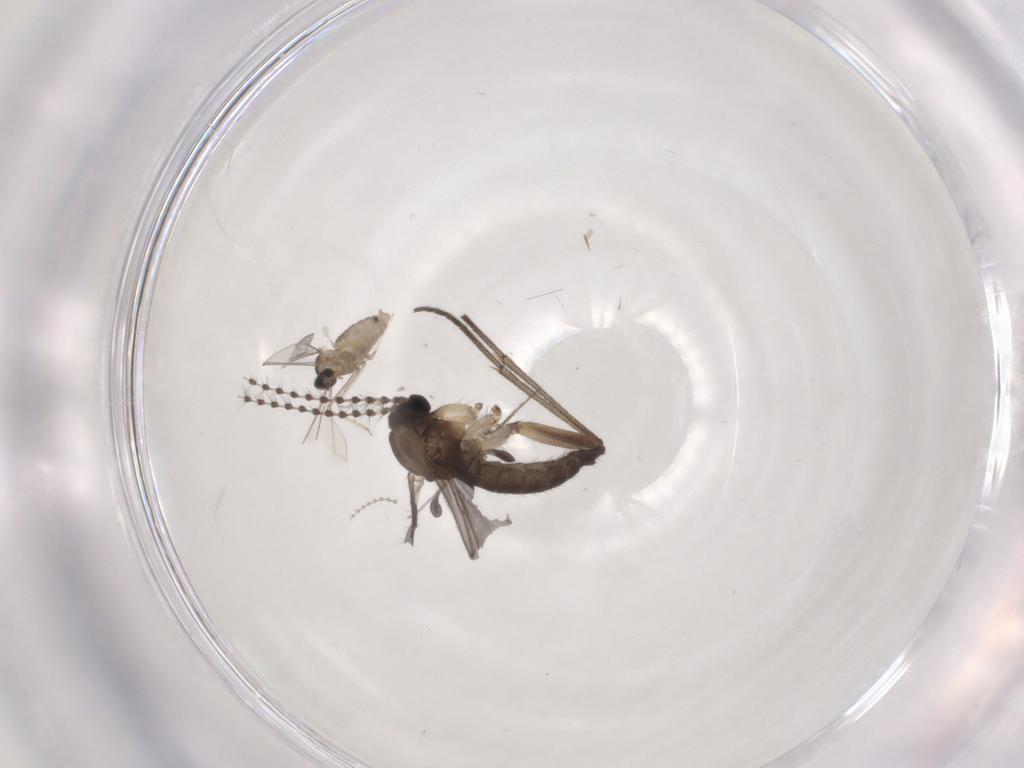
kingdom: Animalia
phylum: Arthropoda
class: Insecta
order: Diptera
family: Sciaridae
